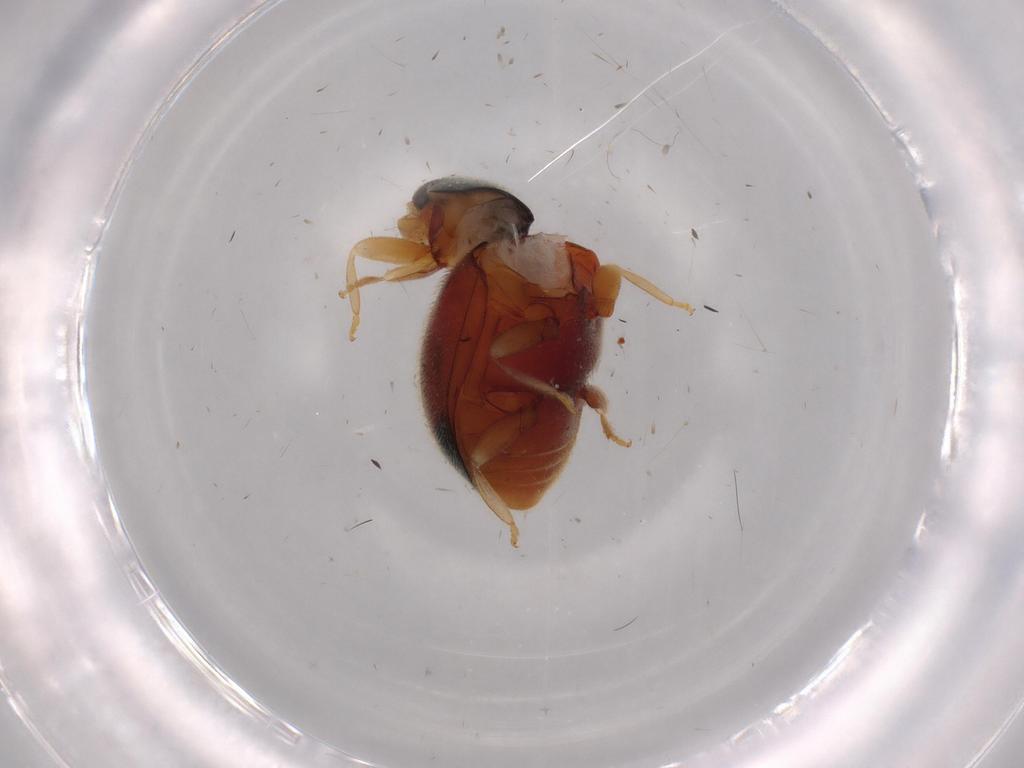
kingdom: Animalia
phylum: Arthropoda
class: Insecta
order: Coleoptera
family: Coccinellidae
